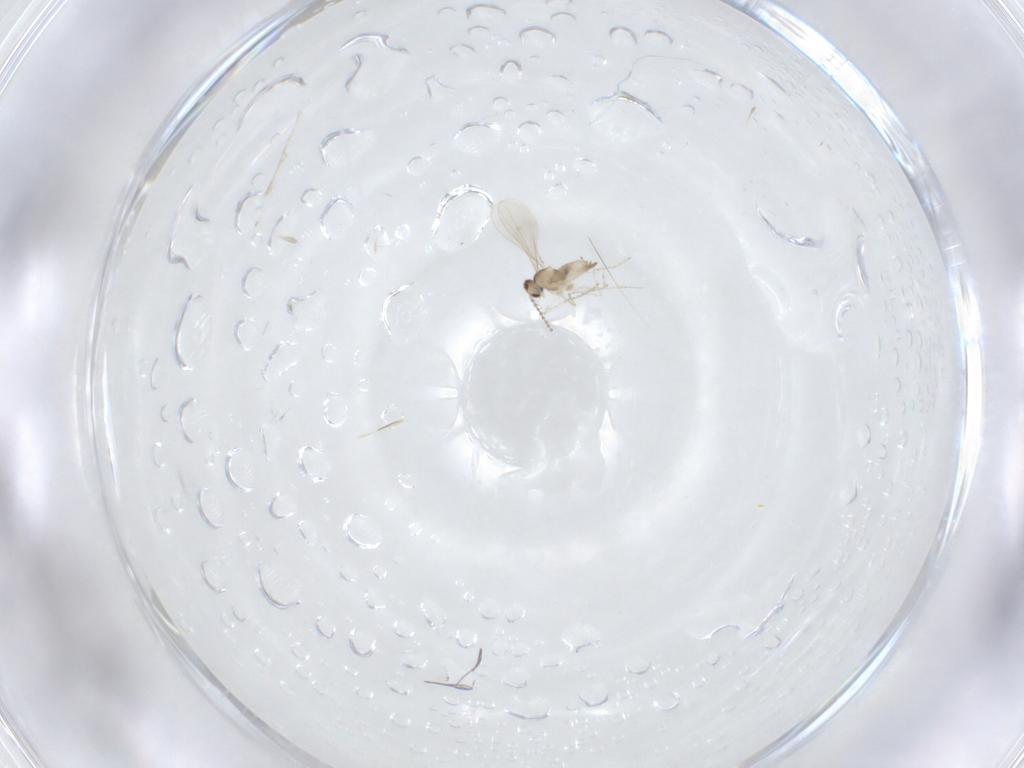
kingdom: Animalia
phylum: Arthropoda
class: Insecta
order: Diptera
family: Cecidomyiidae
